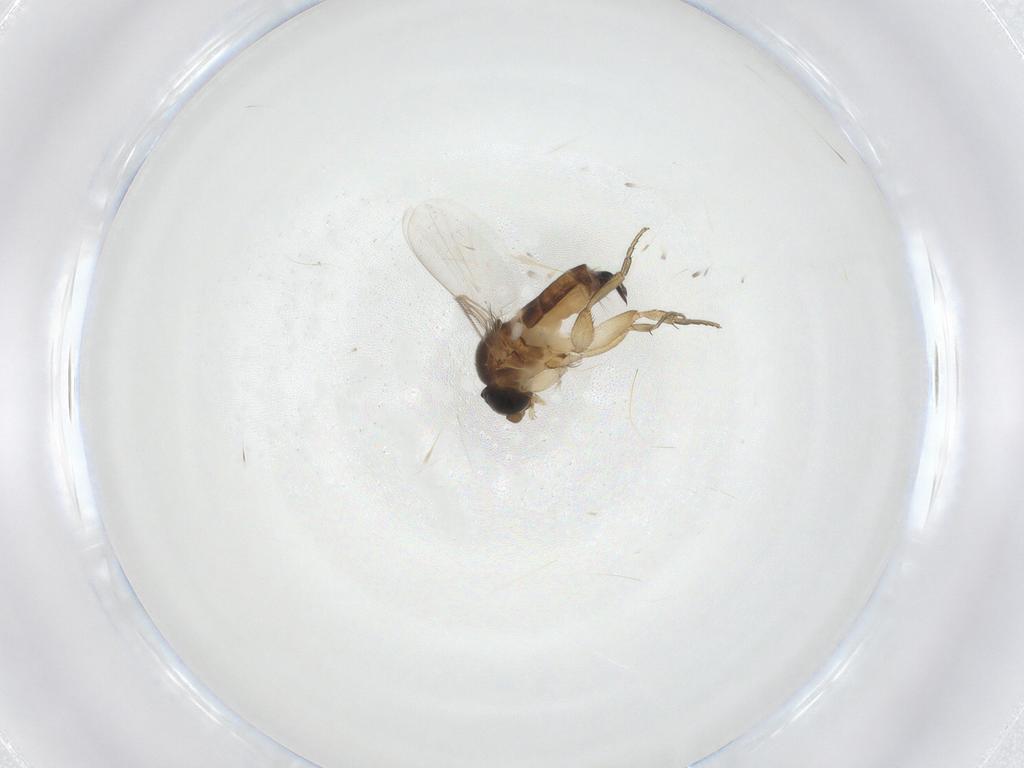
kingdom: Animalia
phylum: Arthropoda
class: Insecta
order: Diptera
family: Phoridae
